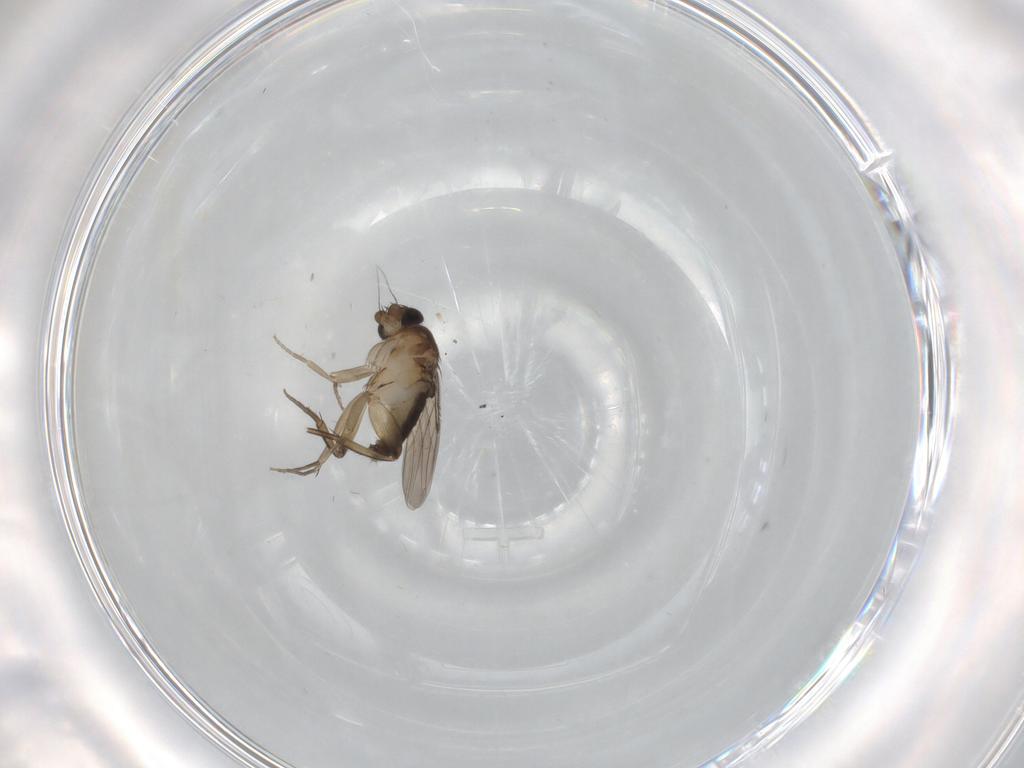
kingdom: Animalia
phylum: Arthropoda
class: Insecta
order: Diptera
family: Phoridae
